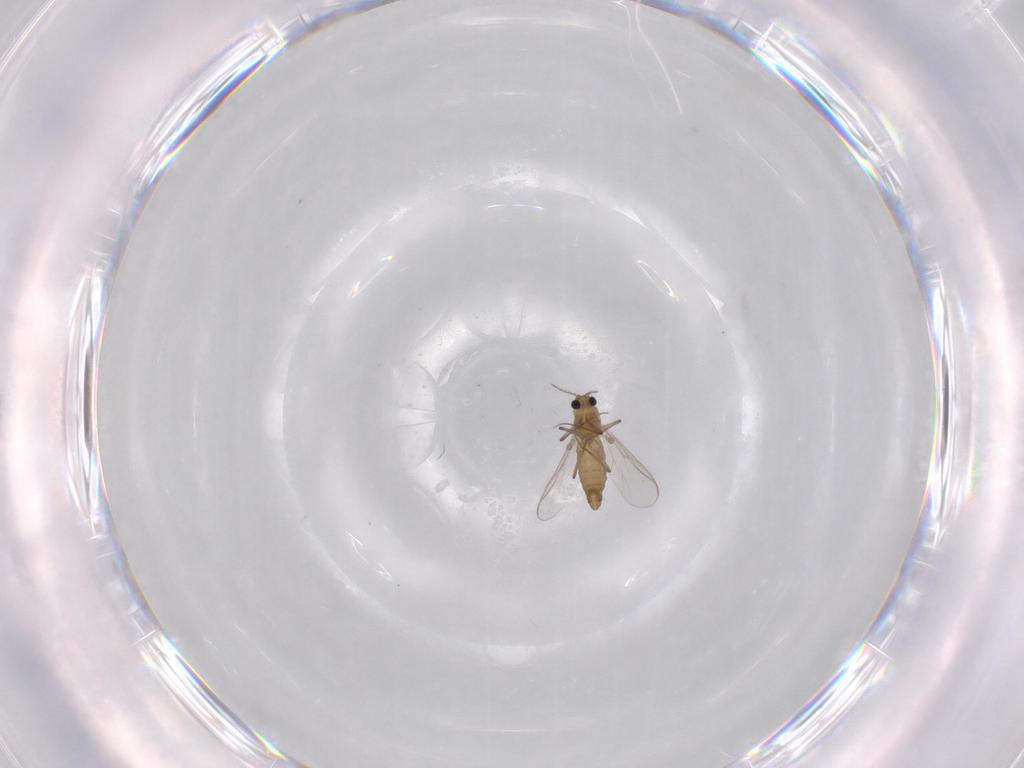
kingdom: Animalia
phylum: Arthropoda
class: Insecta
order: Diptera
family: Chironomidae
